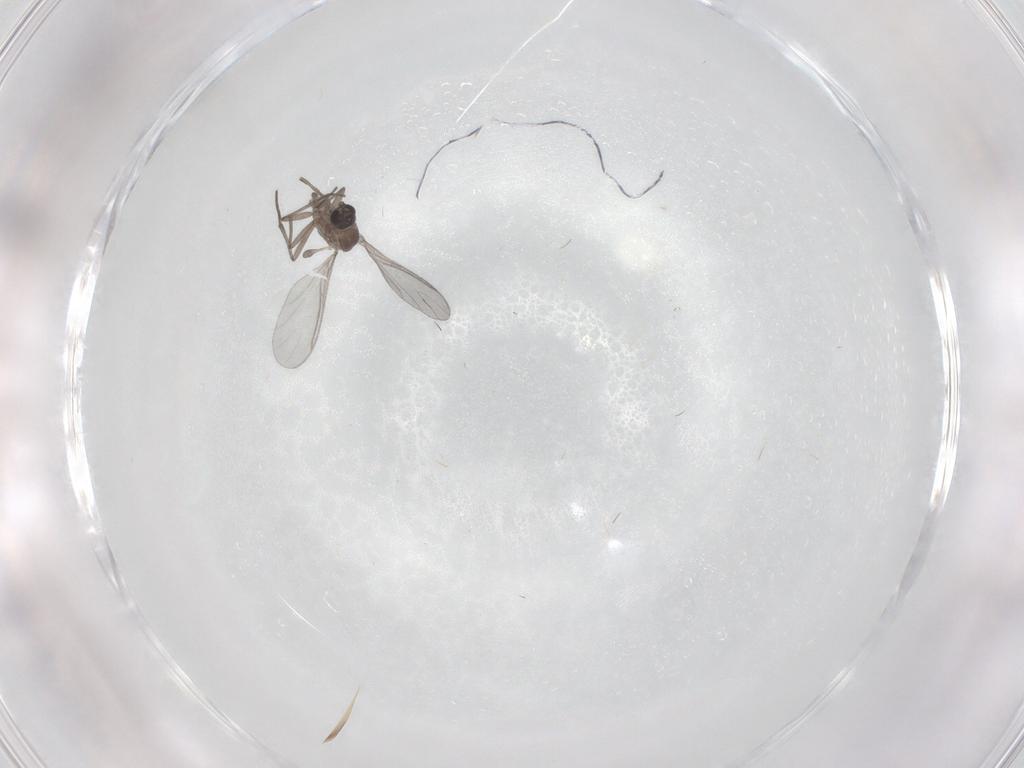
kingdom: Animalia
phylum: Arthropoda
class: Insecta
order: Diptera
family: Sciaridae
